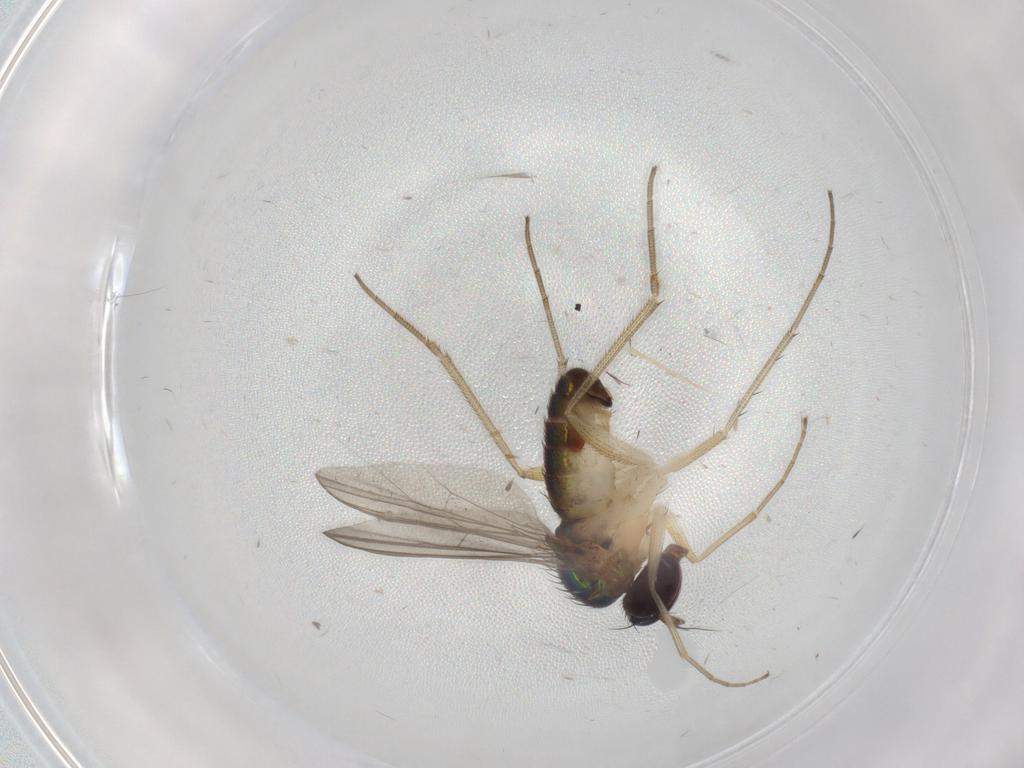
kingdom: Animalia
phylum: Arthropoda
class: Insecta
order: Diptera
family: Dolichopodidae
